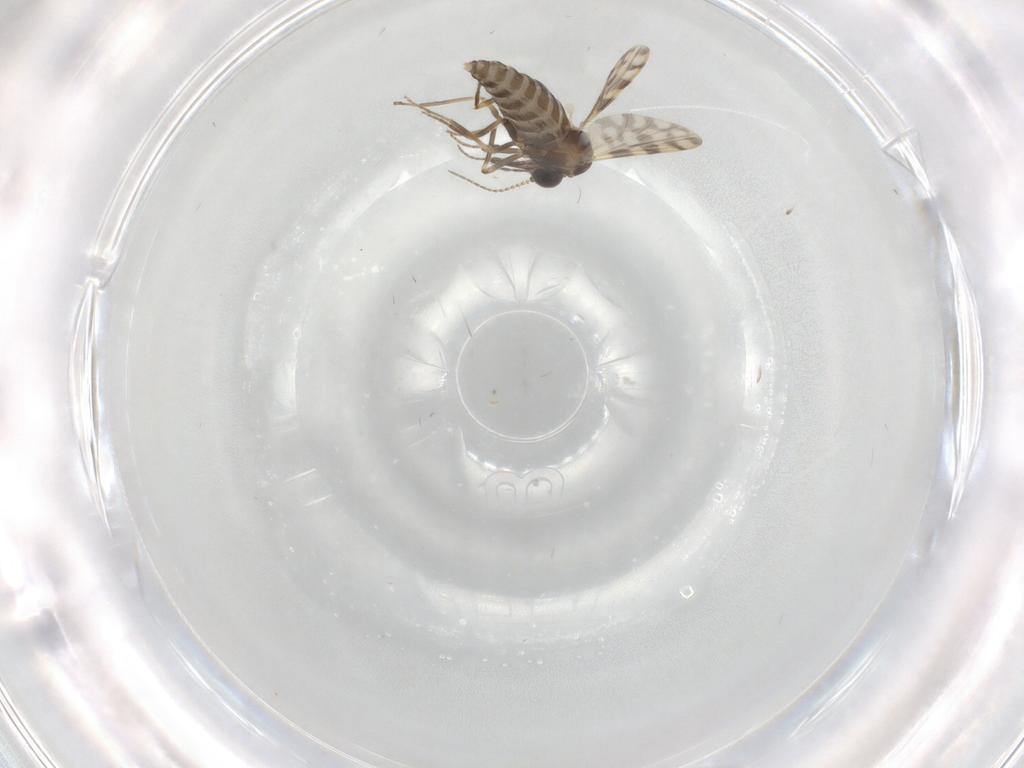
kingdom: Animalia
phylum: Arthropoda
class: Insecta
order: Diptera
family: Ceratopogonidae
